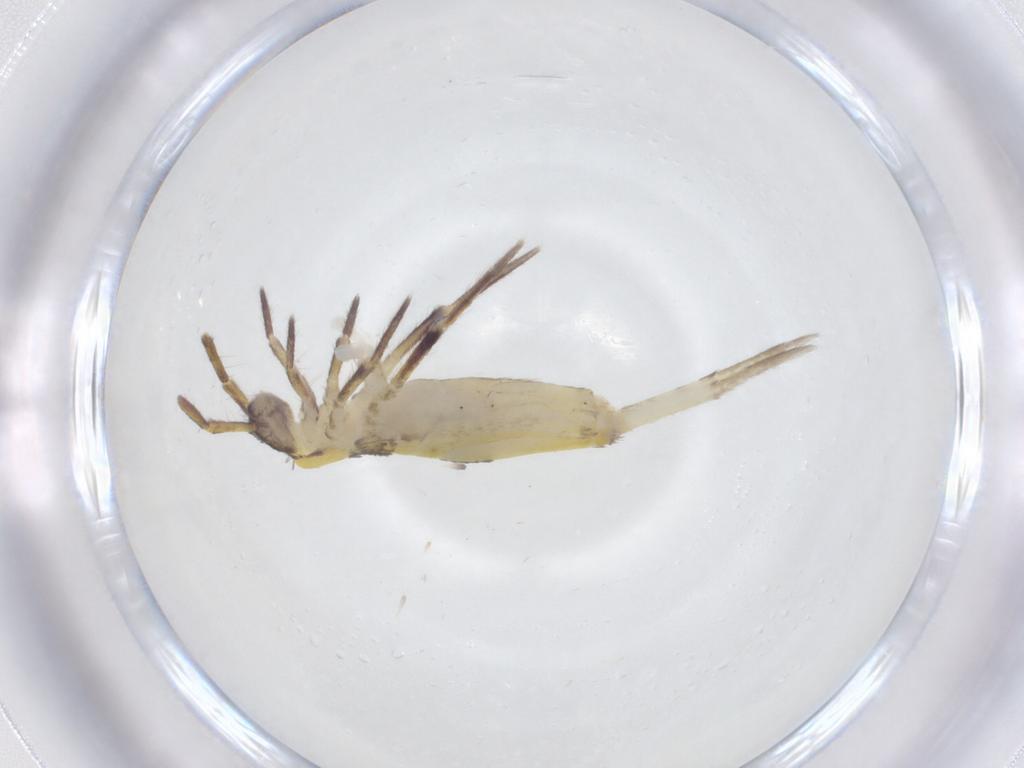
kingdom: Animalia
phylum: Arthropoda
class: Collembola
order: Entomobryomorpha
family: Entomobryidae
